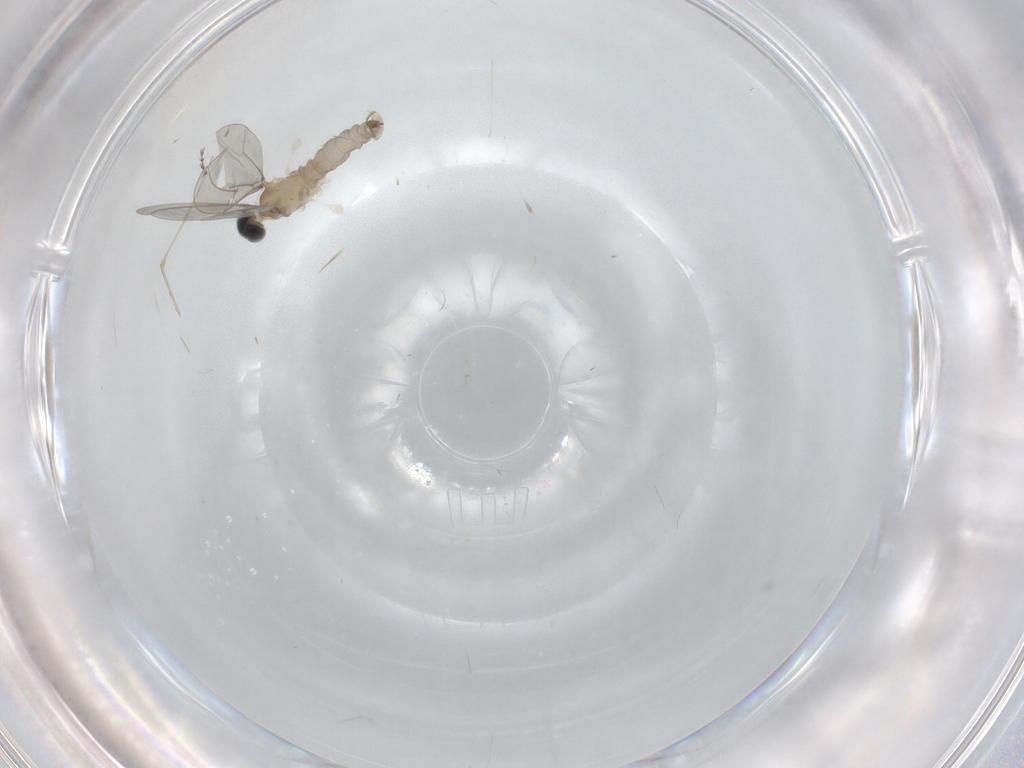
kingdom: Animalia
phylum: Arthropoda
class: Insecta
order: Diptera
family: Cecidomyiidae
